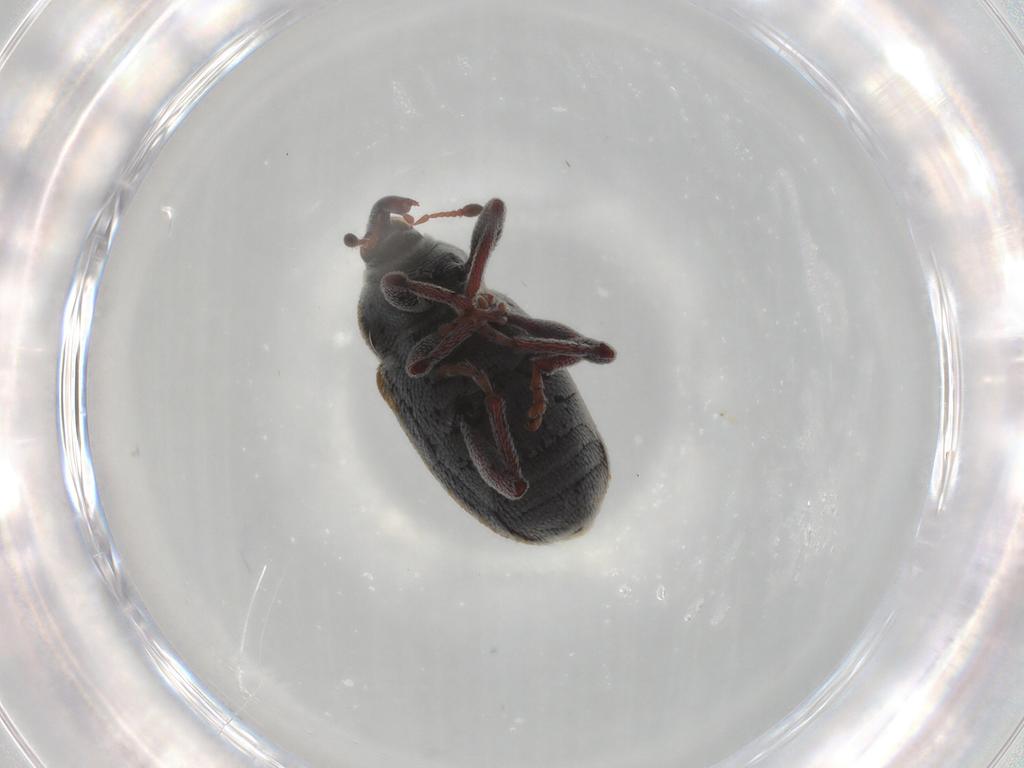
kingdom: Animalia
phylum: Arthropoda
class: Insecta
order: Coleoptera
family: Curculionidae
